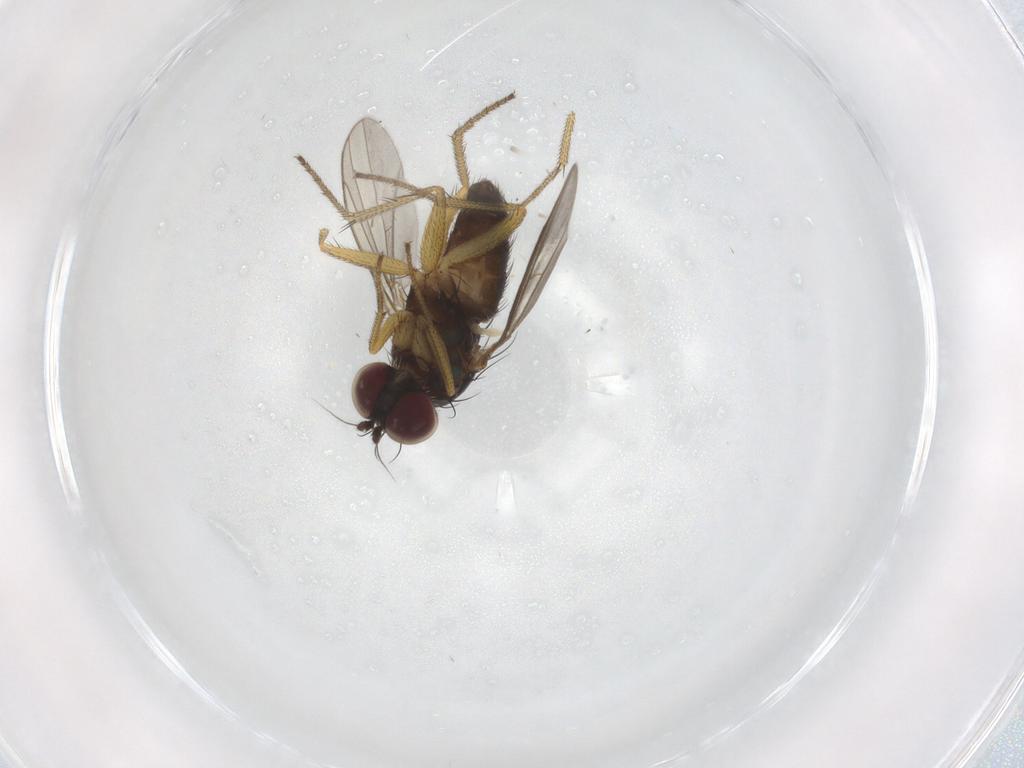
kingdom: Animalia
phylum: Arthropoda
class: Insecta
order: Diptera
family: Dolichopodidae
